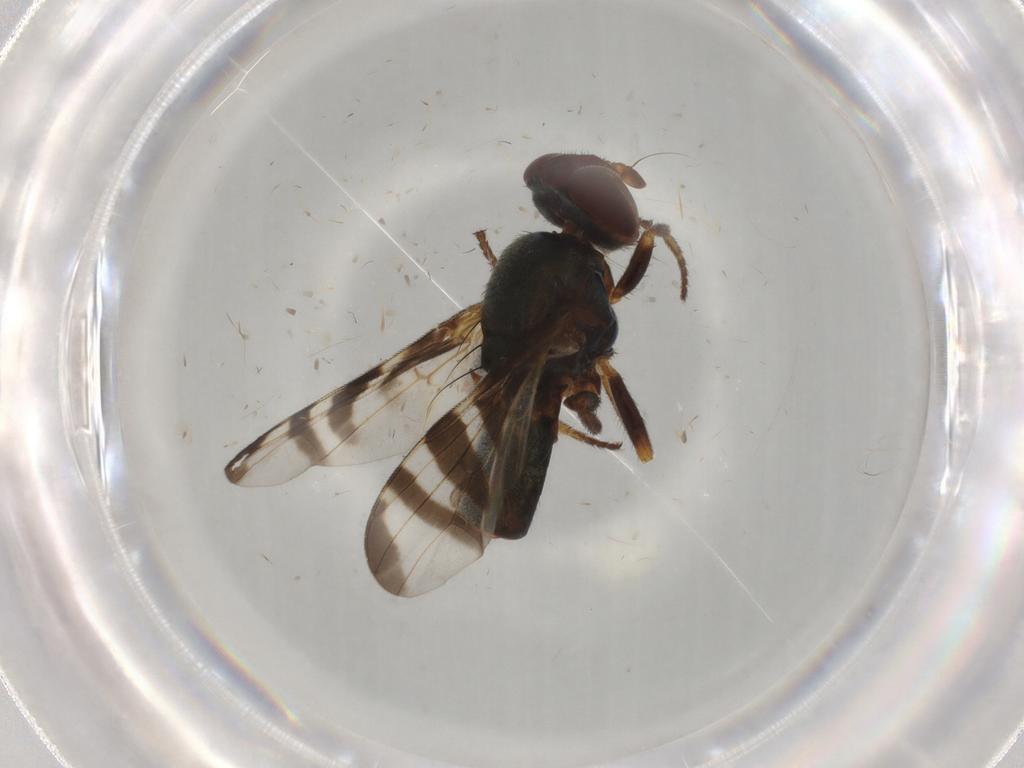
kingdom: Animalia
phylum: Arthropoda
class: Insecta
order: Diptera
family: Platystomatidae
